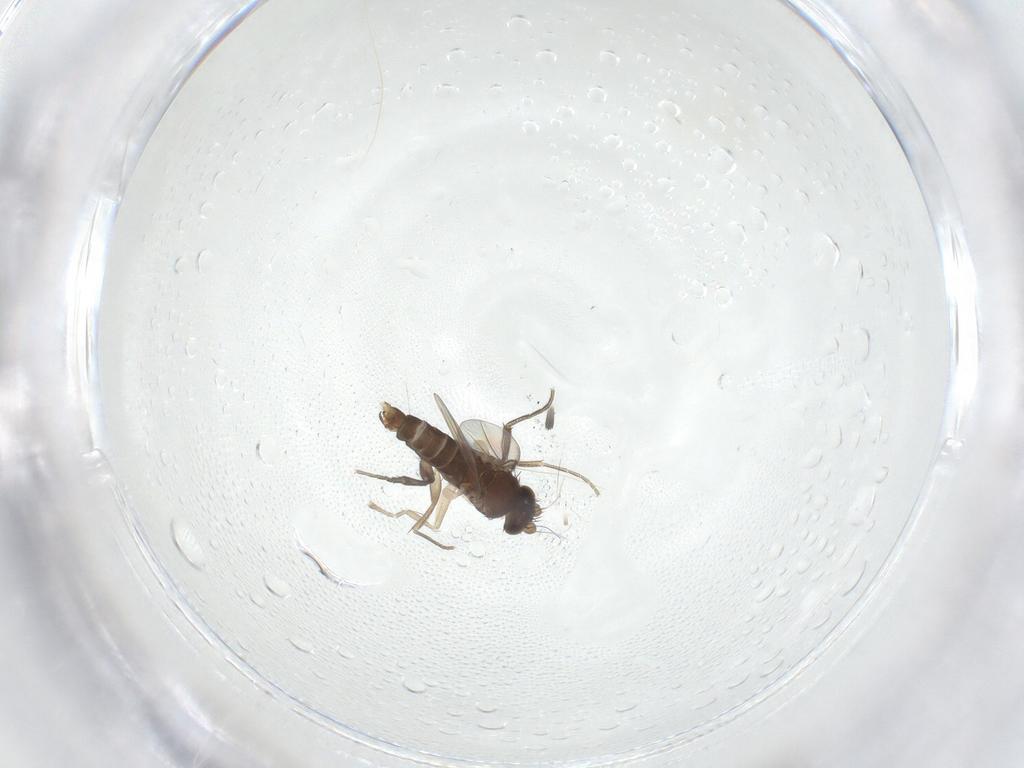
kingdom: Animalia
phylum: Arthropoda
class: Insecta
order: Diptera
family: Phoridae
